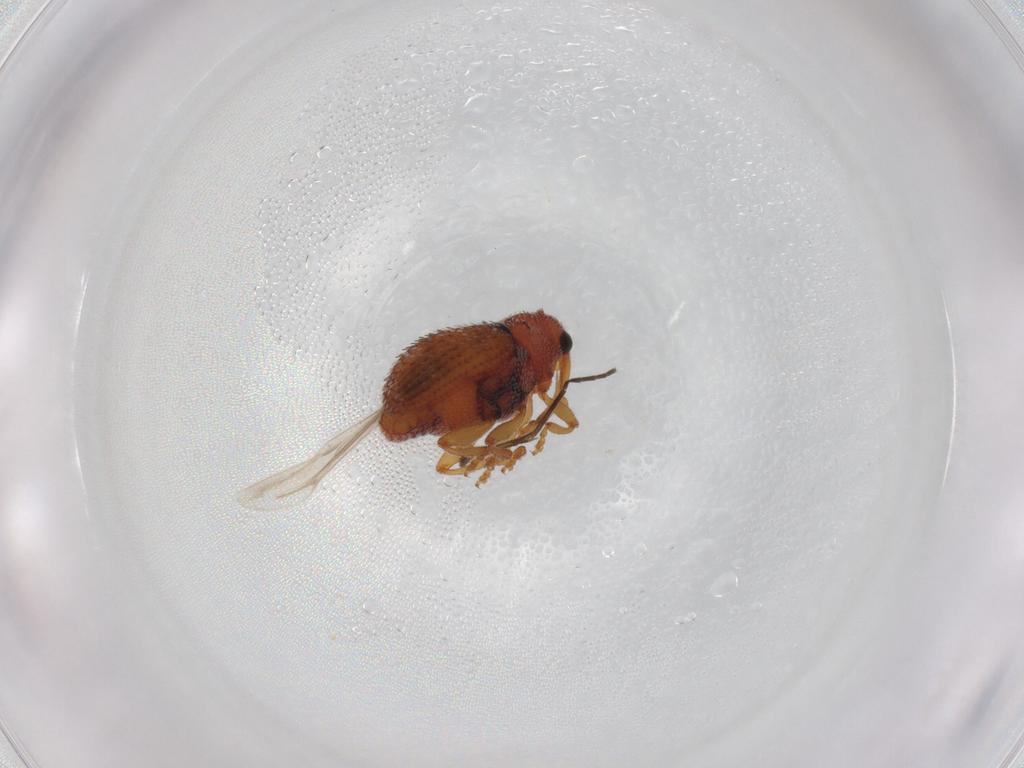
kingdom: Animalia
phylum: Arthropoda
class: Insecta
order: Coleoptera
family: Curculionidae
